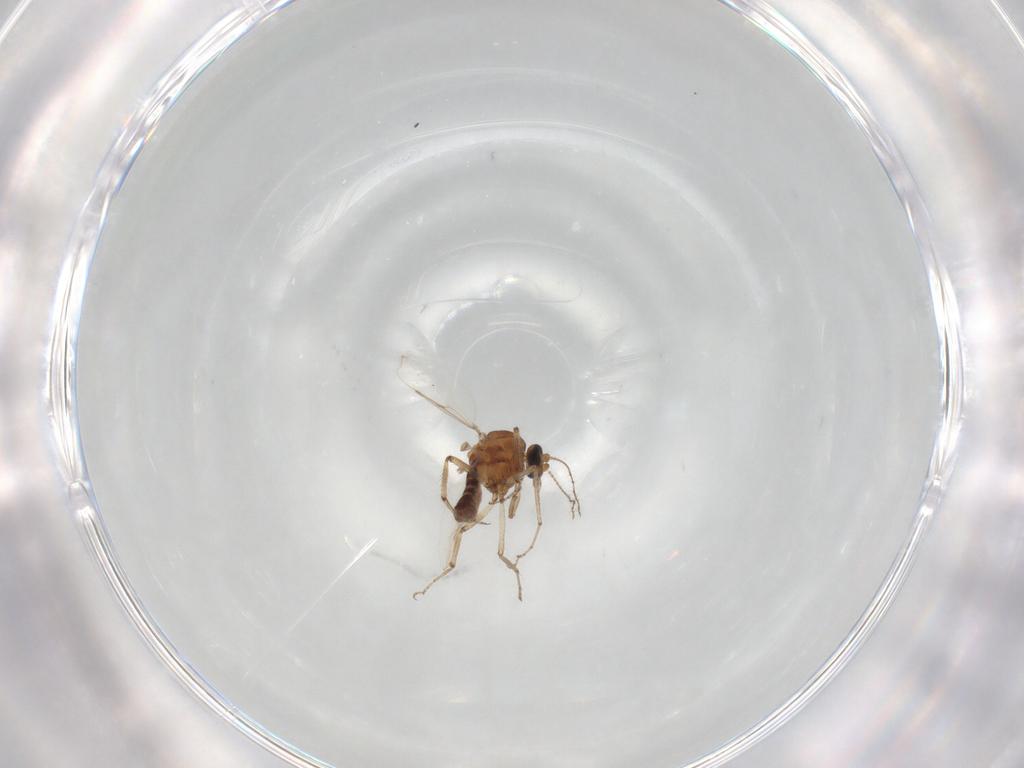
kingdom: Animalia
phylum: Arthropoda
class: Insecta
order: Diptera
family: Ceratopogonidae
